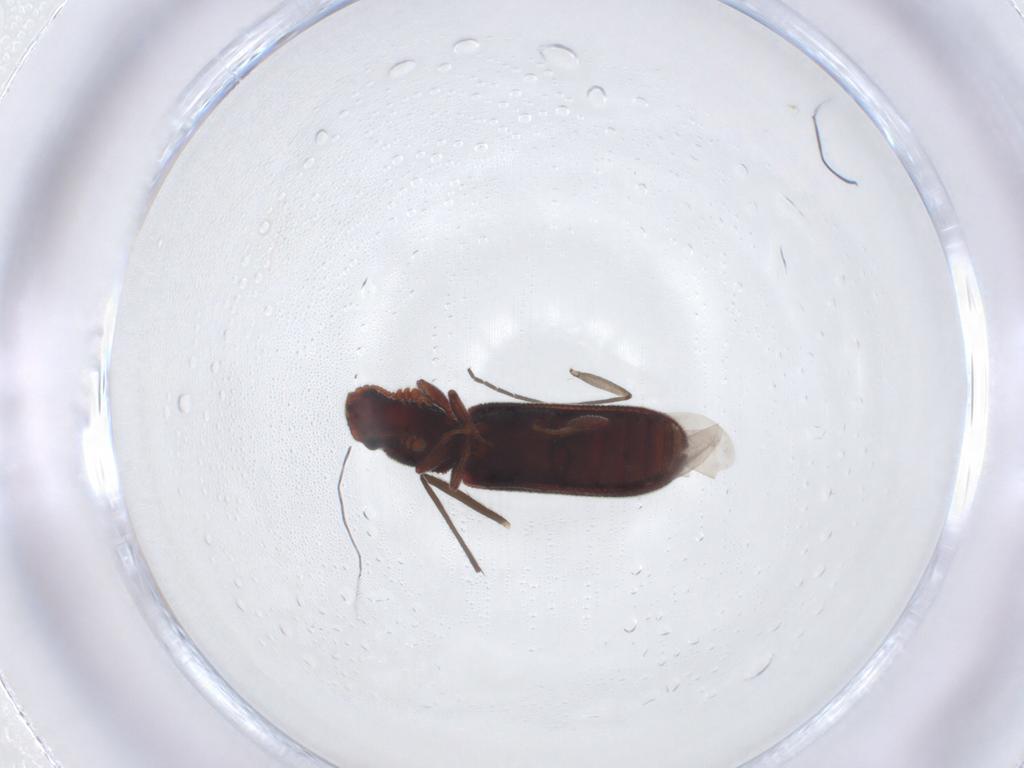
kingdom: Animalia
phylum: Arthropoda
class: Insecta
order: Coleoptera
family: Zopheridae
